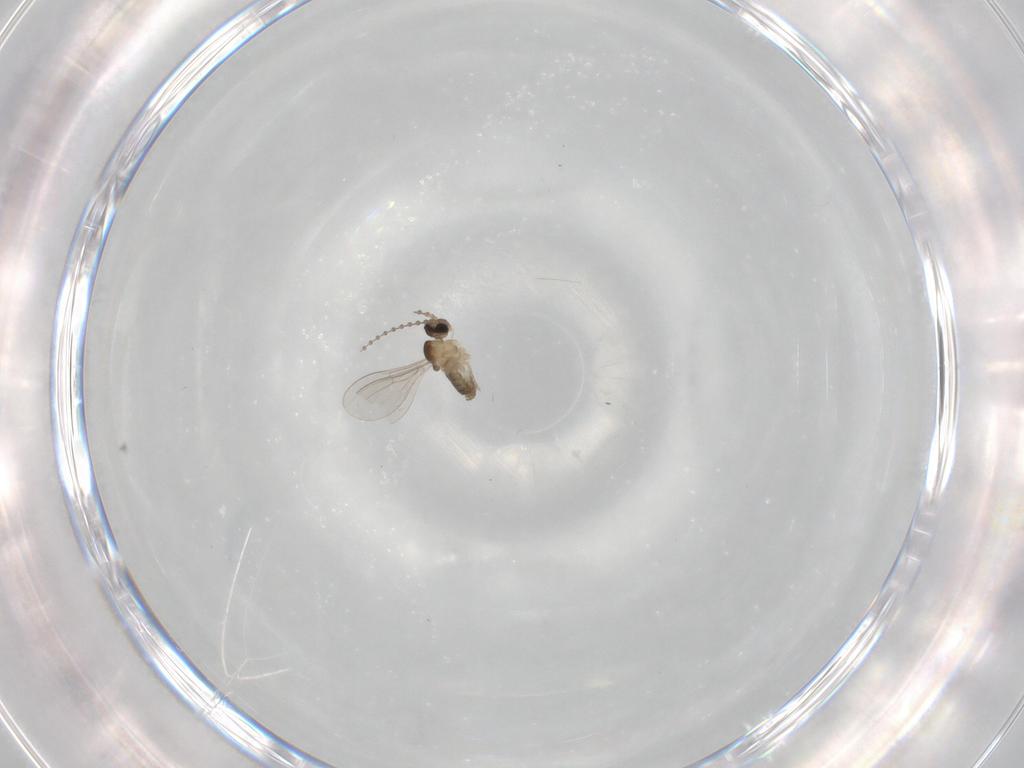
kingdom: Animalia
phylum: Arthropoda
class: Insecta
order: Diptera
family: Cecidomyiidae
